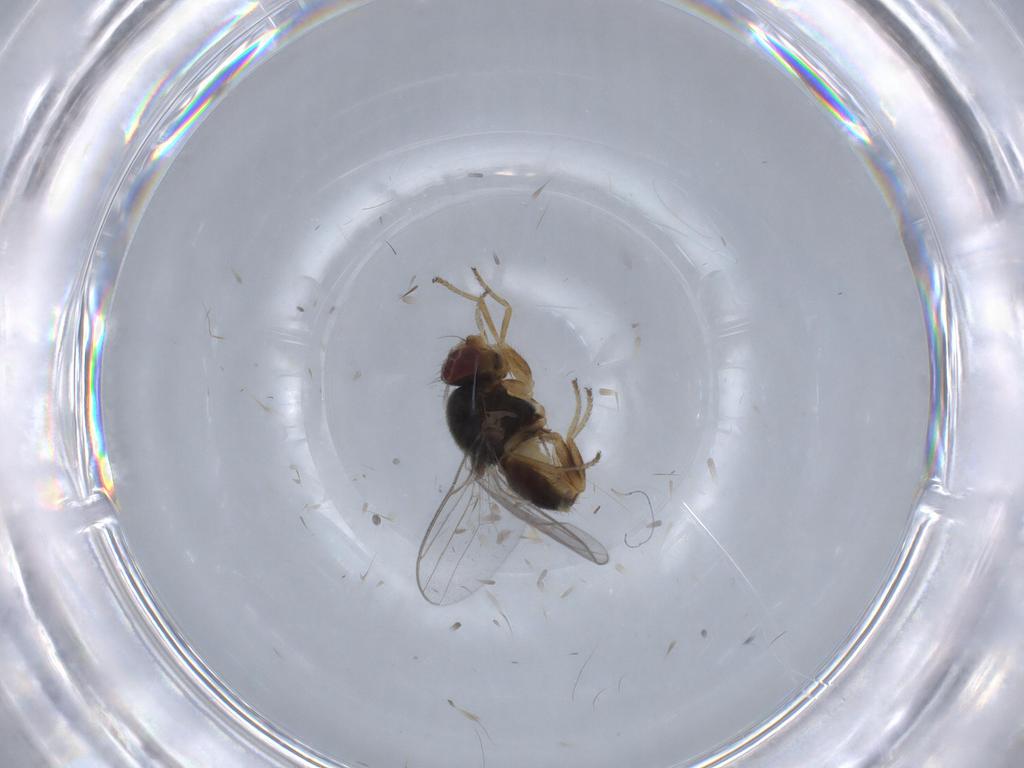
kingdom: Animalia
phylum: Arthropoda
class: Insecta
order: Diptera
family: Chloropidae
